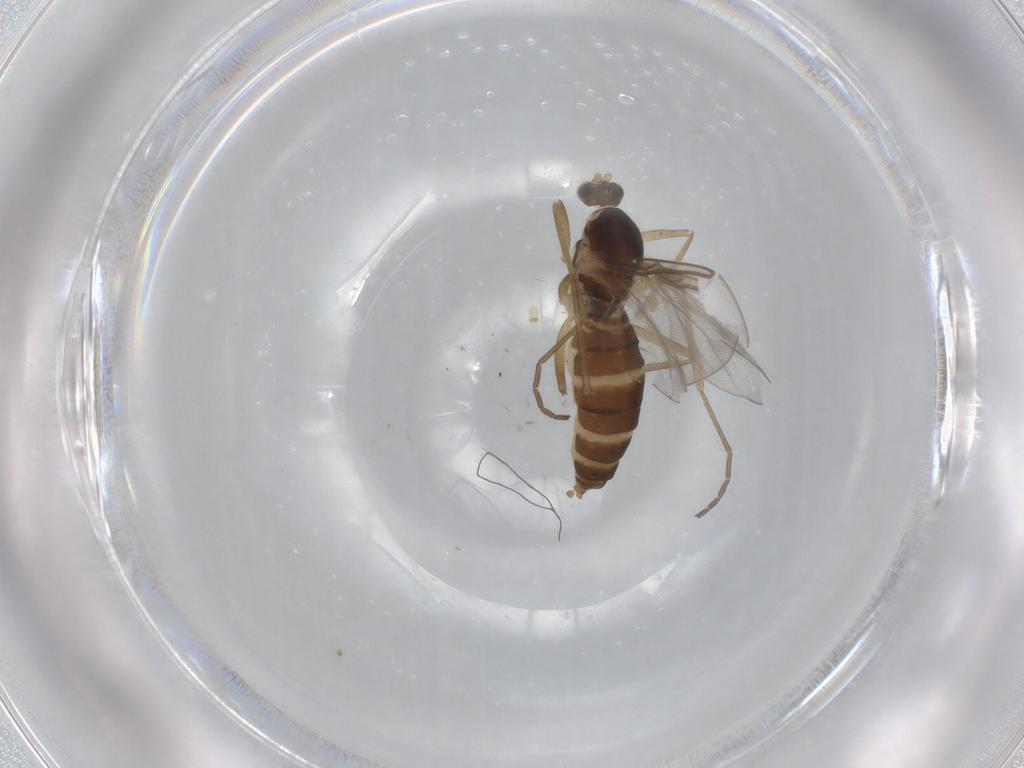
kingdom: Animalia
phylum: Arthropoda
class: Insecta
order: Diptera
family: Cecidomyiidae
